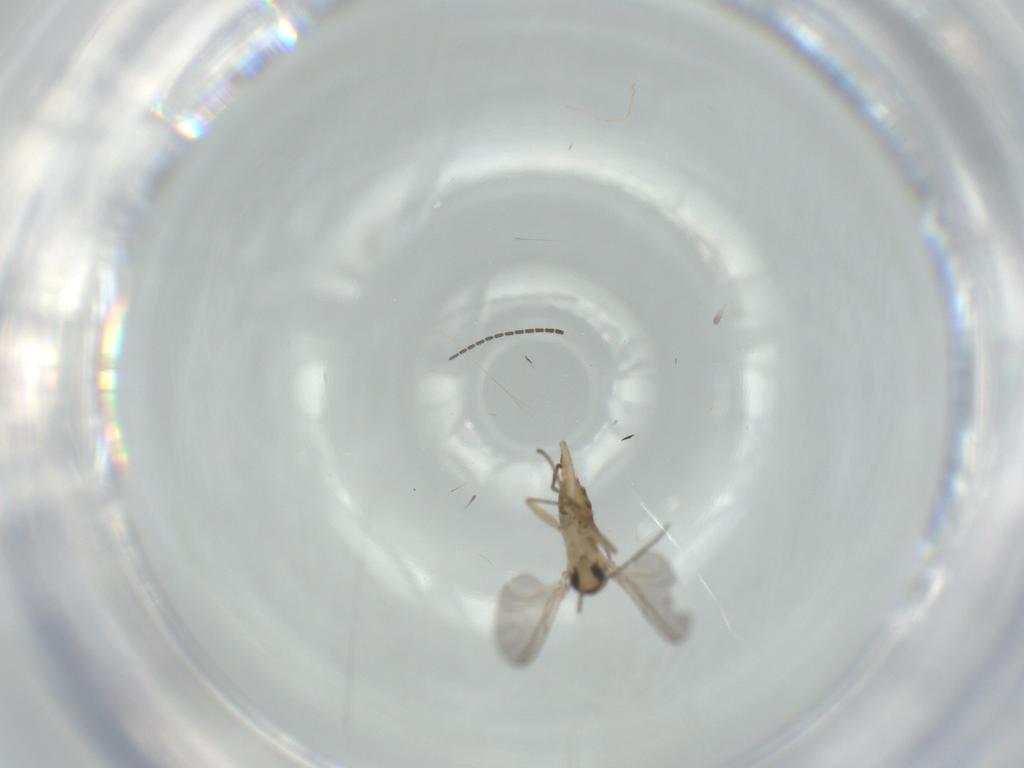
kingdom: Animalia
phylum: Arthropoda
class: Insecta
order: Diptera
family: Sciaridae
